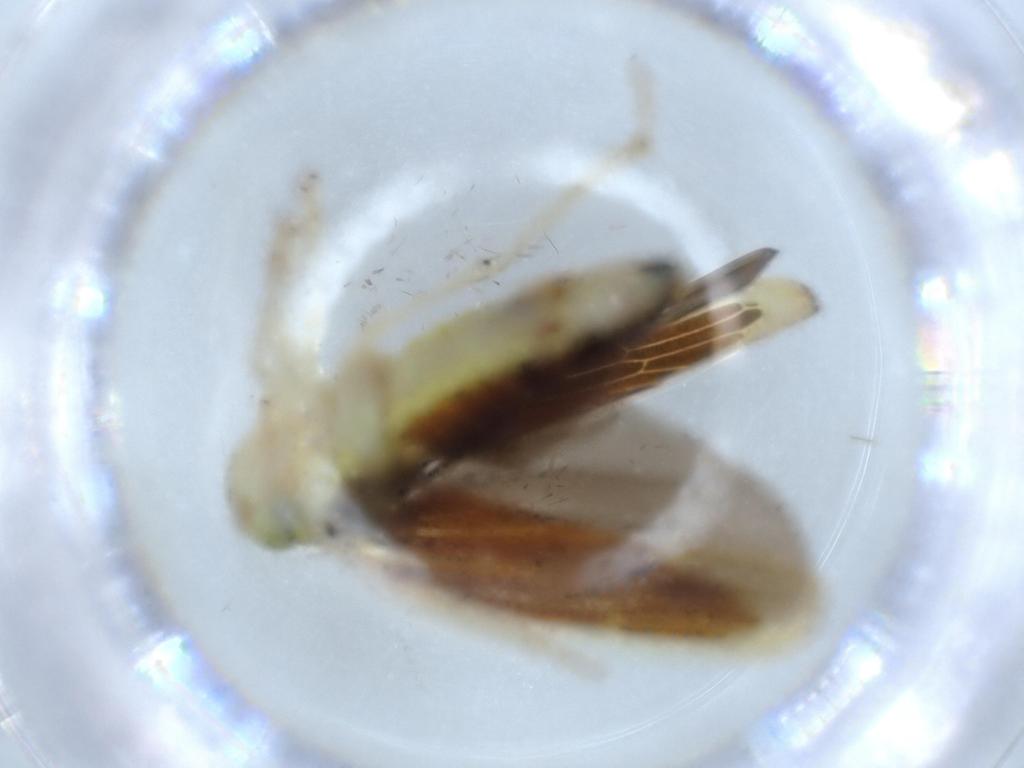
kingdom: Animalia
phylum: Arthropoda
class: Insecta
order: Hemiptera
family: Cicadellidae
